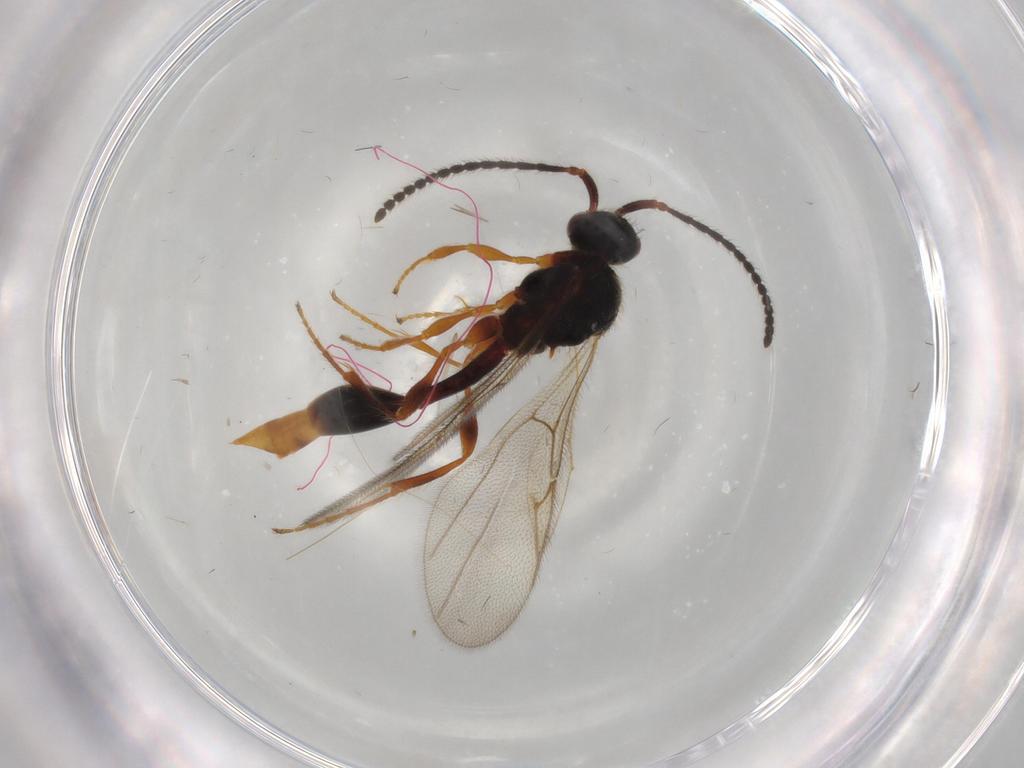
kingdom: Animalia
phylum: Arthropoda
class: Insecta
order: Hymenoptera
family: Diapriidae
